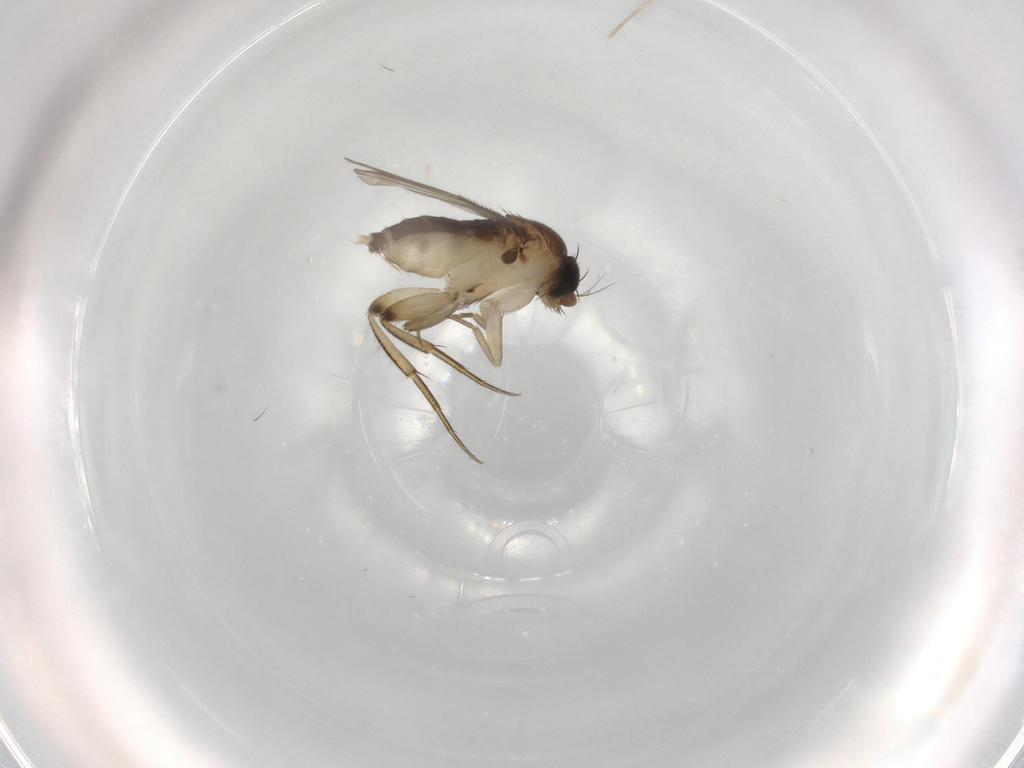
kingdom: Animalia
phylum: Arthropoda
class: Insecta
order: Diptera
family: Phoridae
